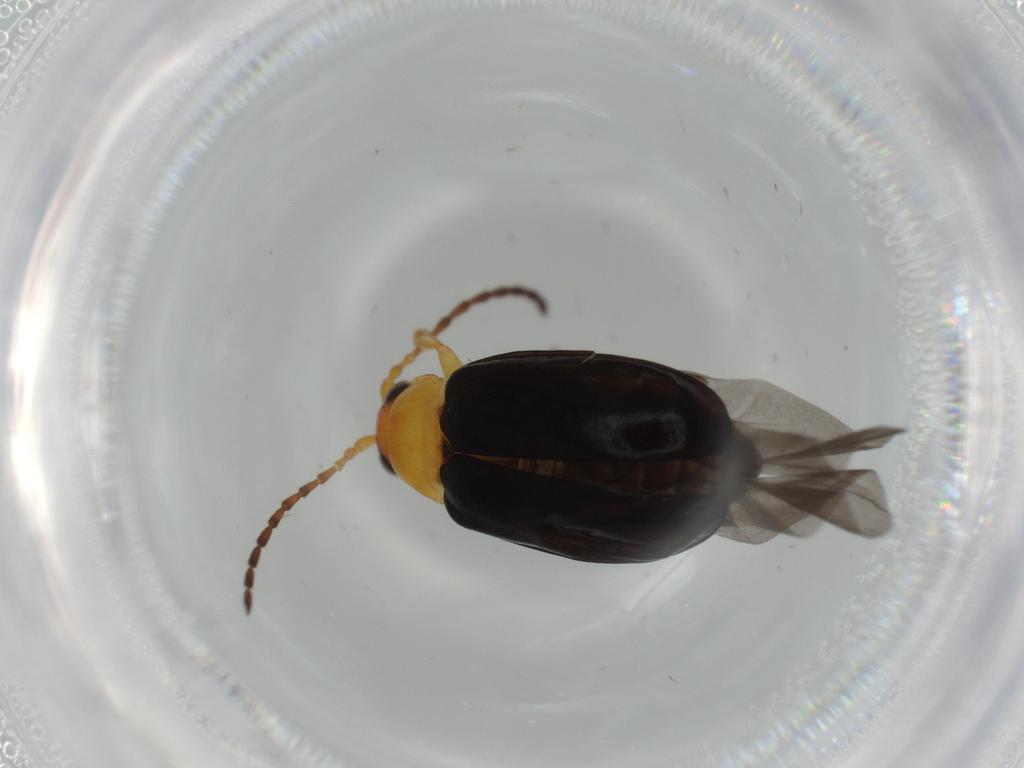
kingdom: Animalia
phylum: Arthropoda
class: Insecta
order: Coleoptera
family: Chrysomelidae
